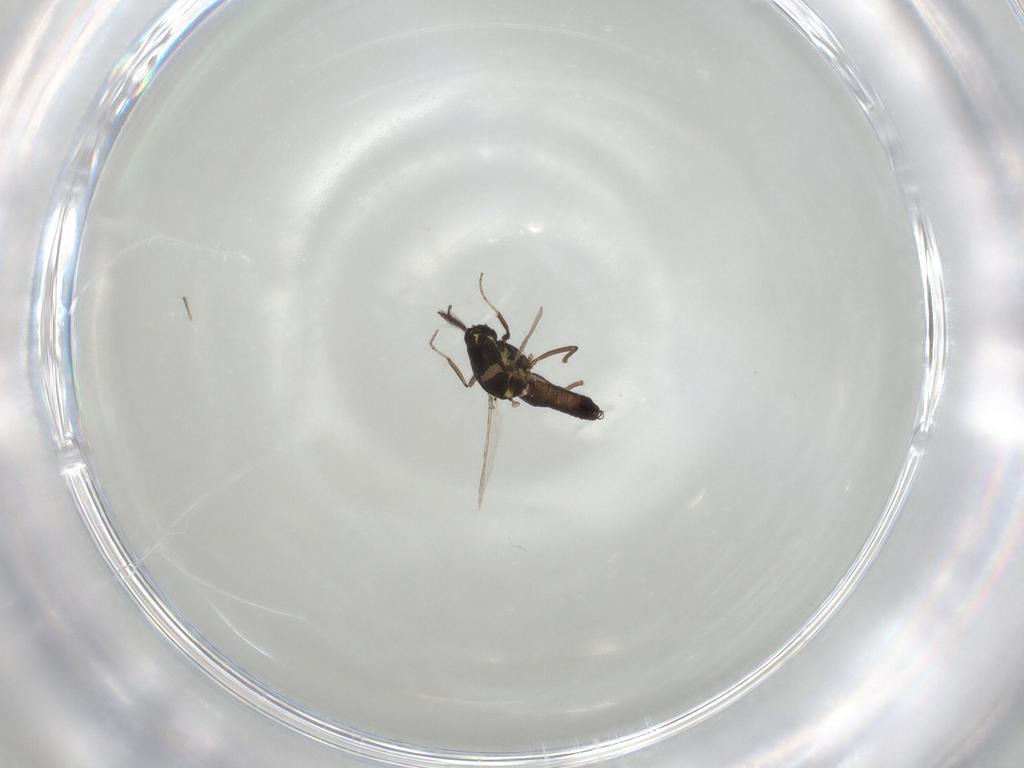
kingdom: Animalia
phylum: Arthropoda
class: Insecta
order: Diptera
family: Ceratopogonidae
